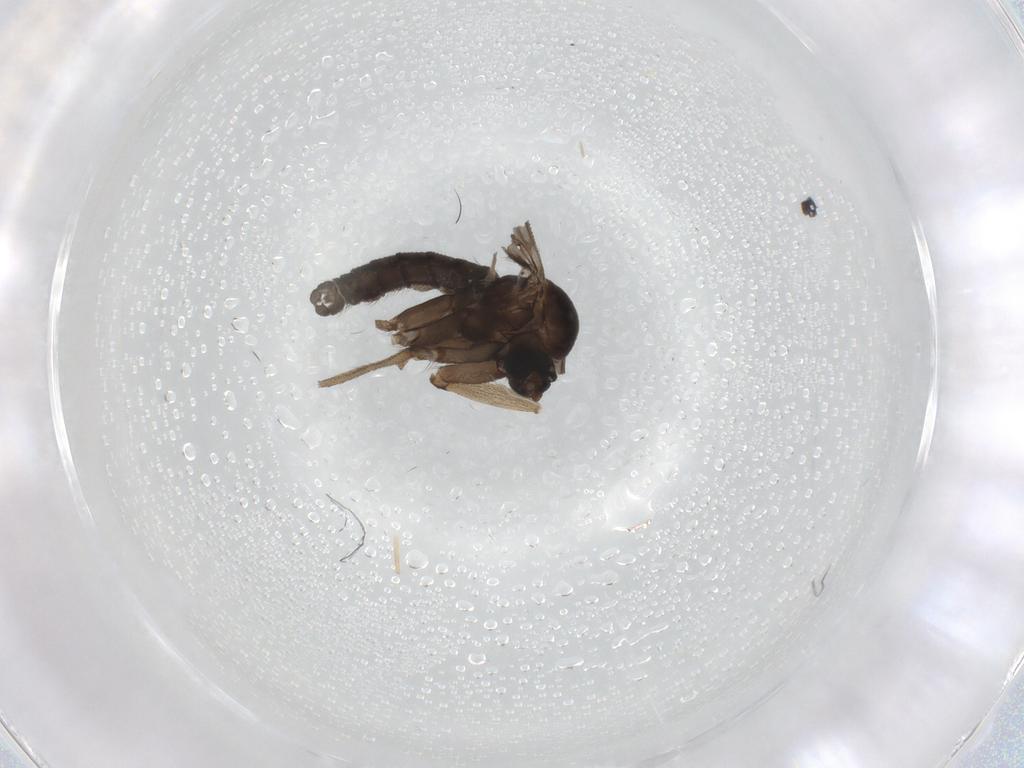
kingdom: Animalia
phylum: Arthropoda
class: Insecta
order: Diptera
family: Sciaridae
